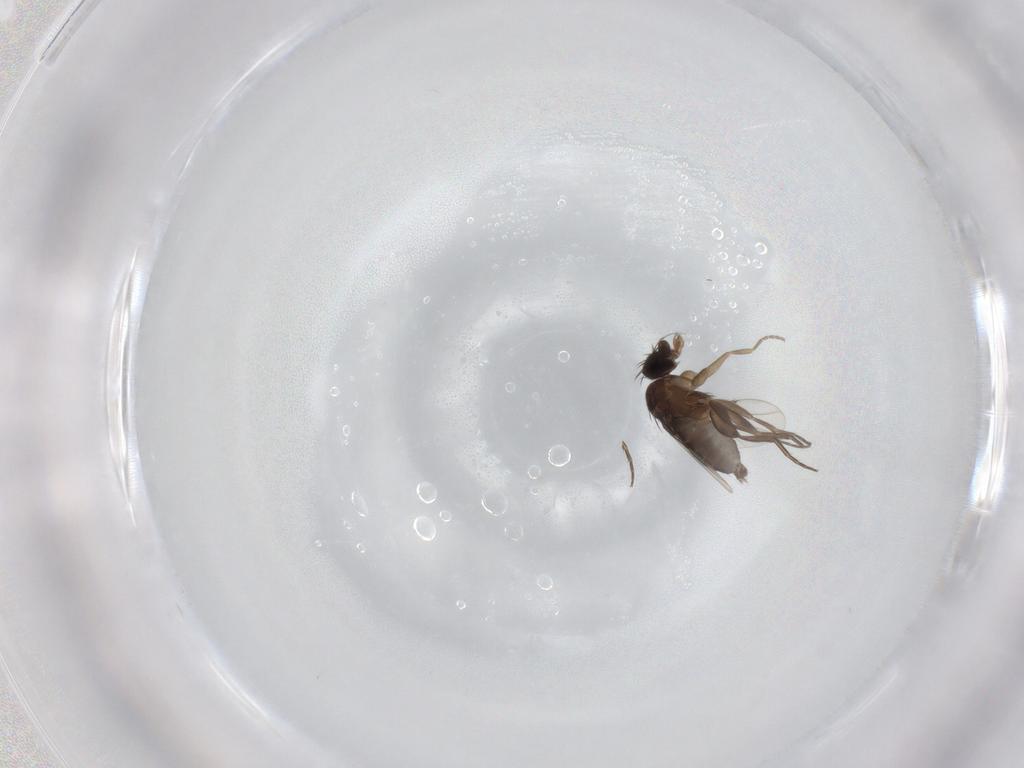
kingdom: Animalia
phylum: Arthropoda
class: Insecta
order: Diptera
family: Phoridae
